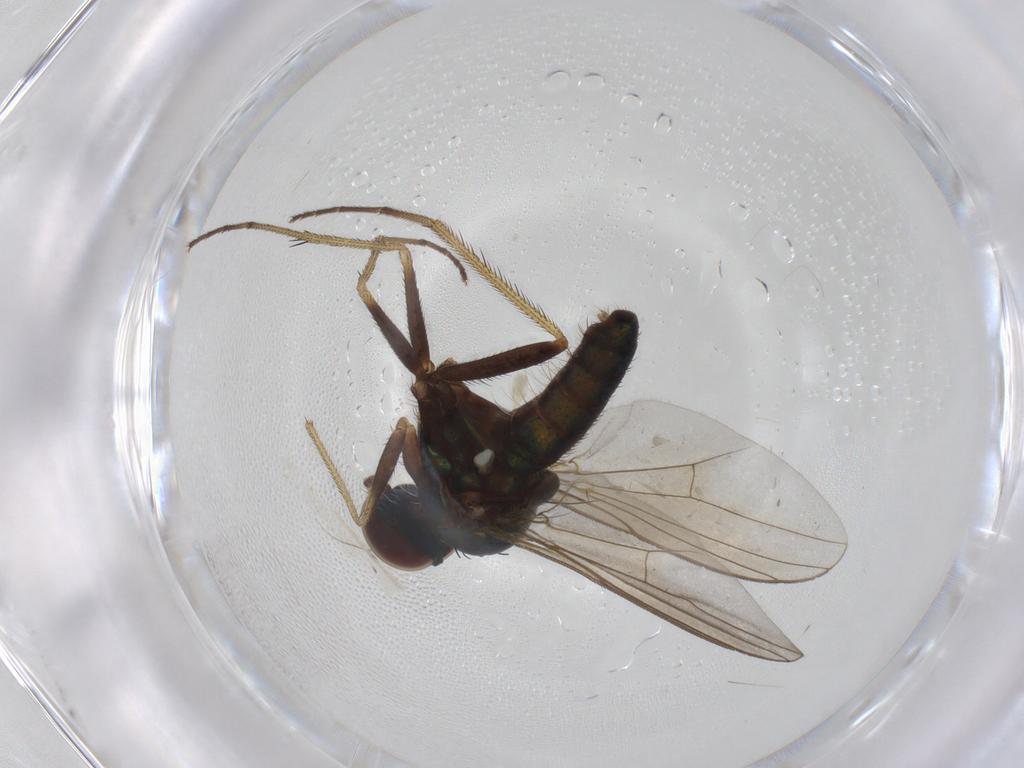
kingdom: Animalia
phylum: Arthropoda
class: Insecta
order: Diptera
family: Dolichopodidae
